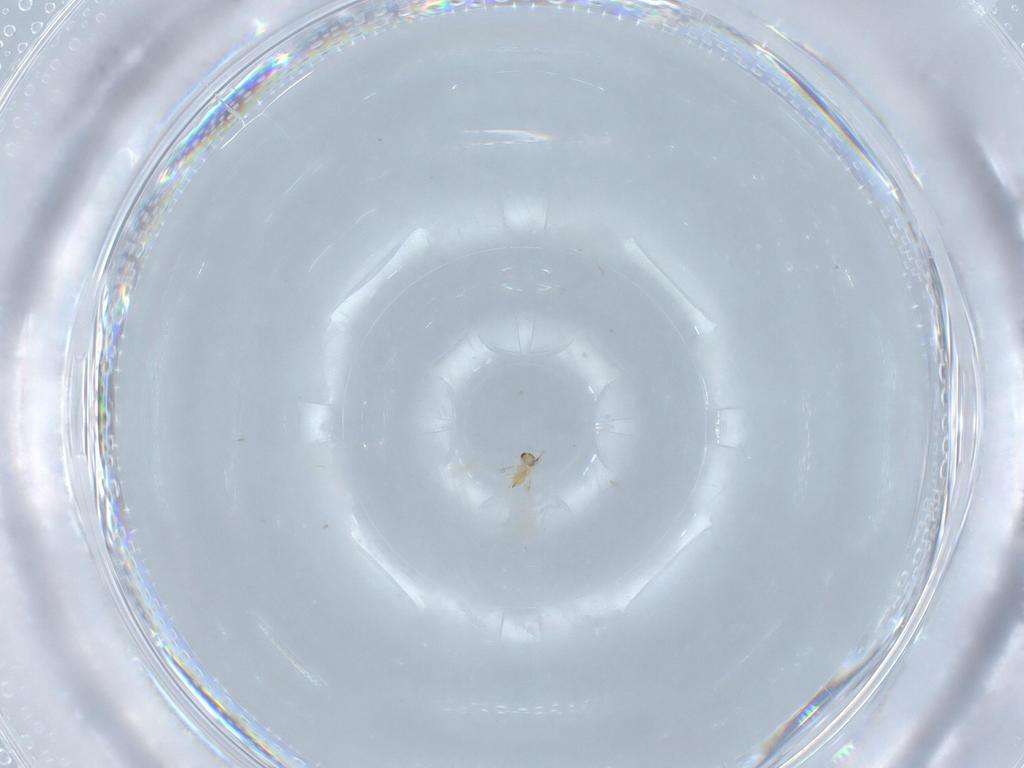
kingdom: Animalia
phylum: Arthropoda
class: Insecta
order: Hymenoptera
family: Mymaridae
